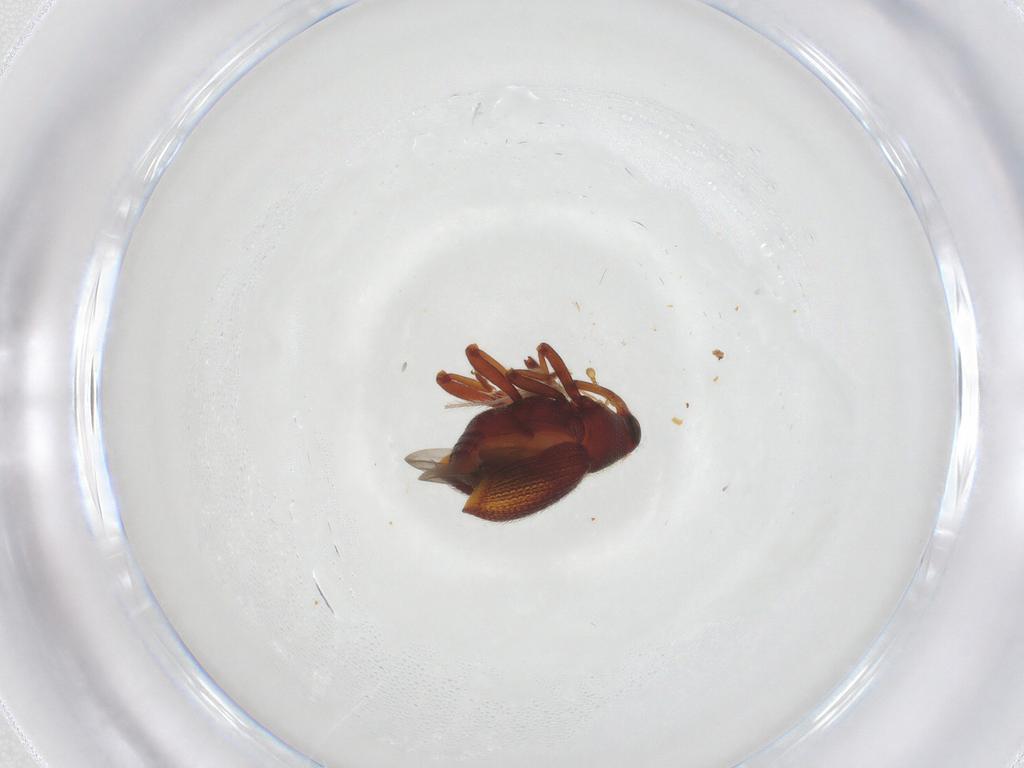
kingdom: Animalia
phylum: Arthropoda
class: Insecta
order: Coleoptera
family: Curculionidae
